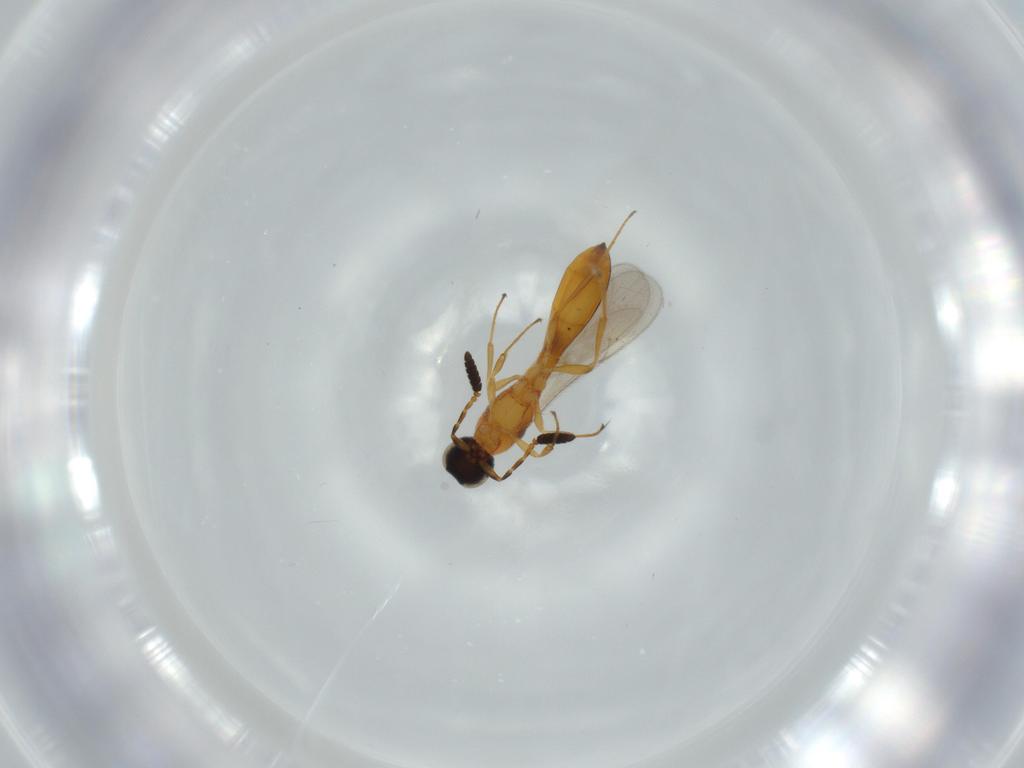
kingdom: Animalia
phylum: Arthropoda
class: Insecta
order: Hymenoptera
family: Scelionidae
